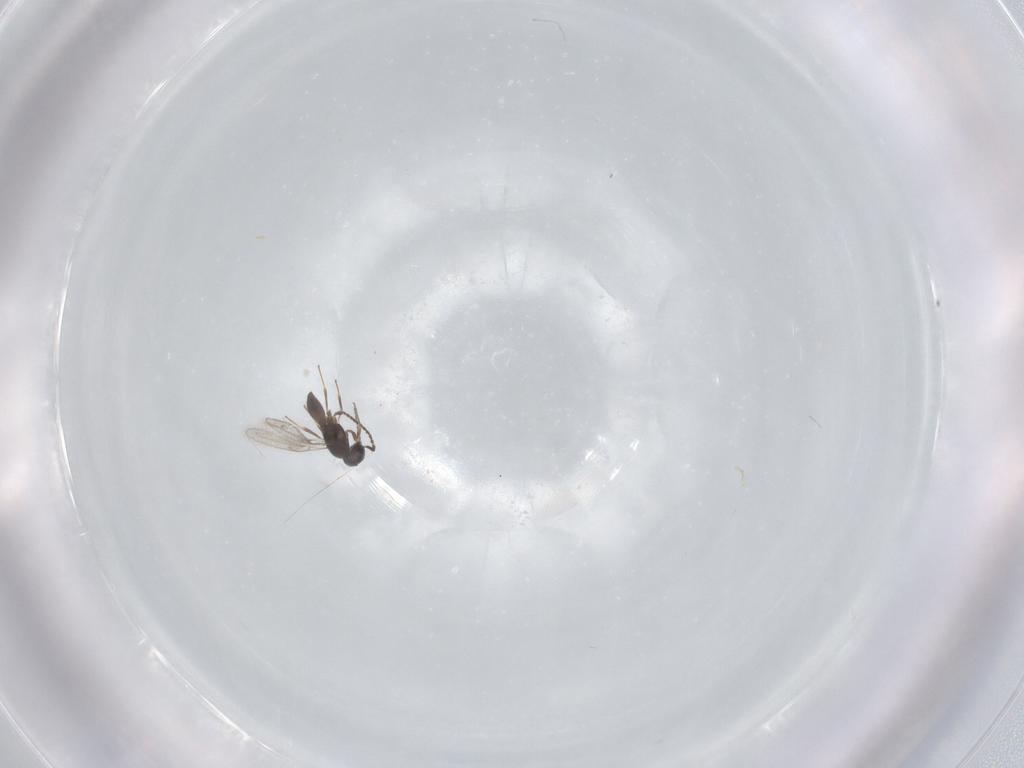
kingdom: Animalia
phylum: Arthropoda
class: Insecta
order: Hymenoptera
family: Scelionidae
